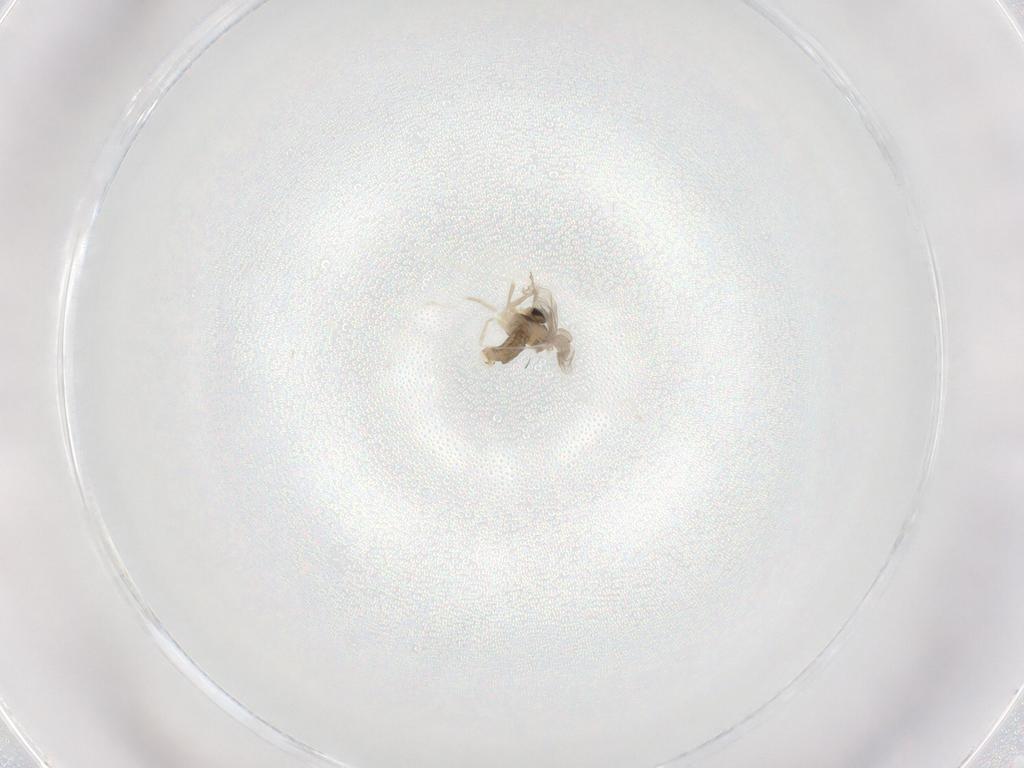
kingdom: Animalia
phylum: Arthropoda
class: Insecta
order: Diptera
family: Cecidomyiidae
